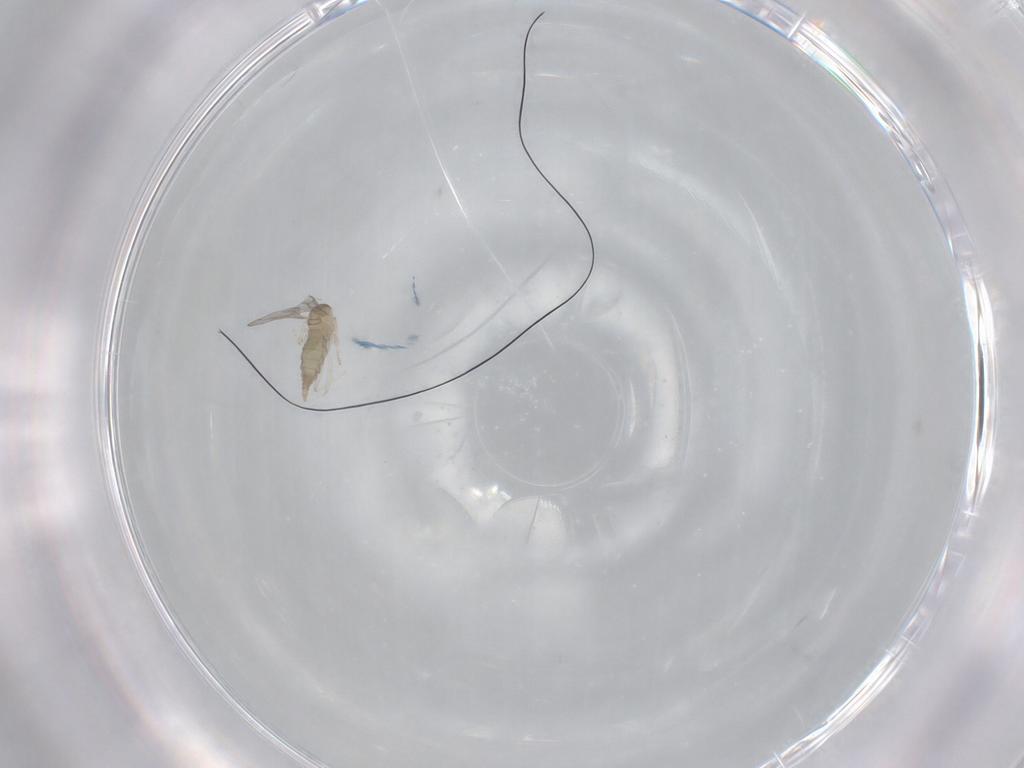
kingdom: Animalia
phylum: Arthropoda
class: Insecta
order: Diptera
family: Cecidomyiidae
